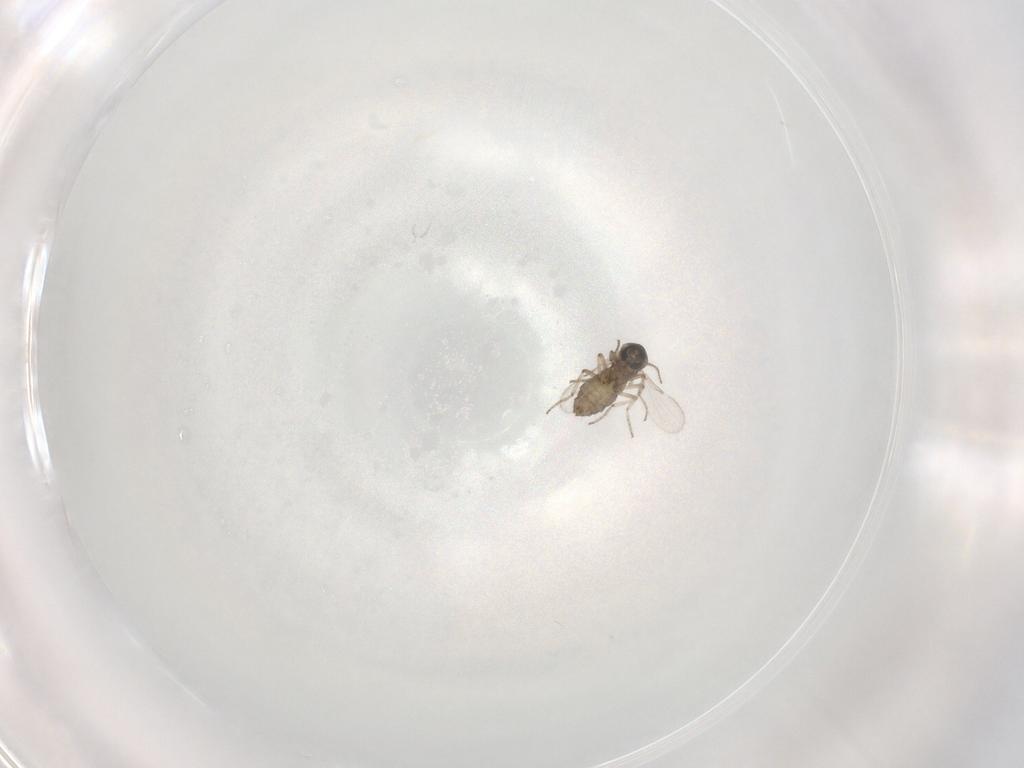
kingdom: Animalia
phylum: Arthropoda
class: Insecta
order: Diptera
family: Ceratopogonidae
